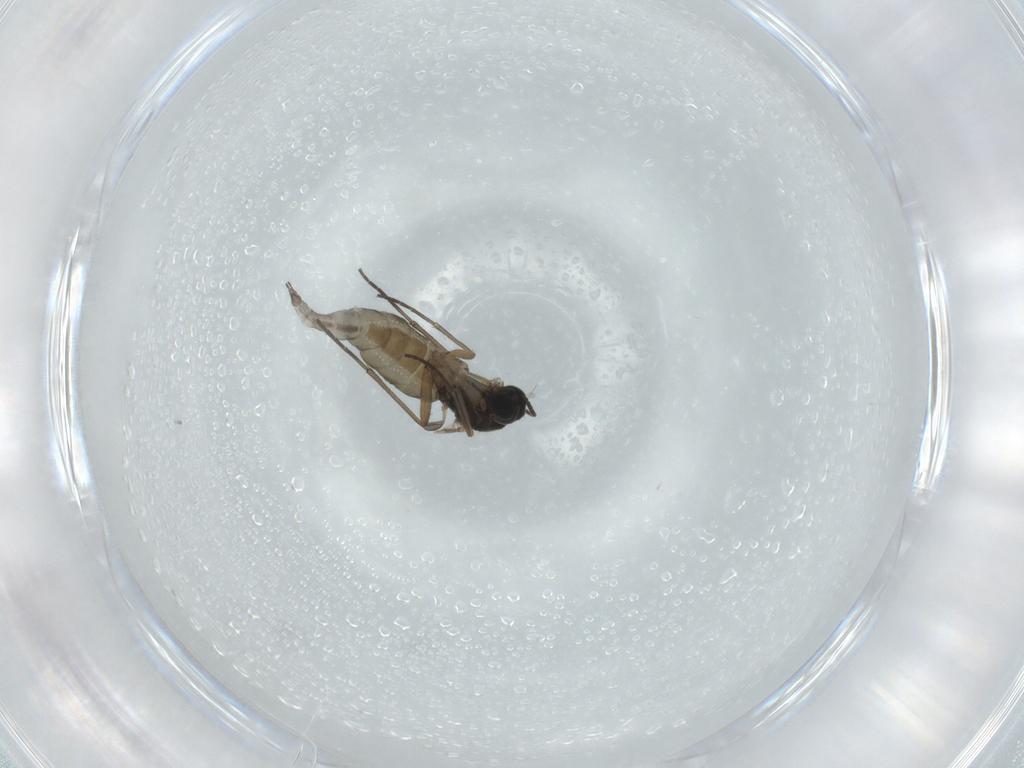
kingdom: Animalia
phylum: Arthropoda
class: Insecta
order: Diptera
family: Sciaridae
